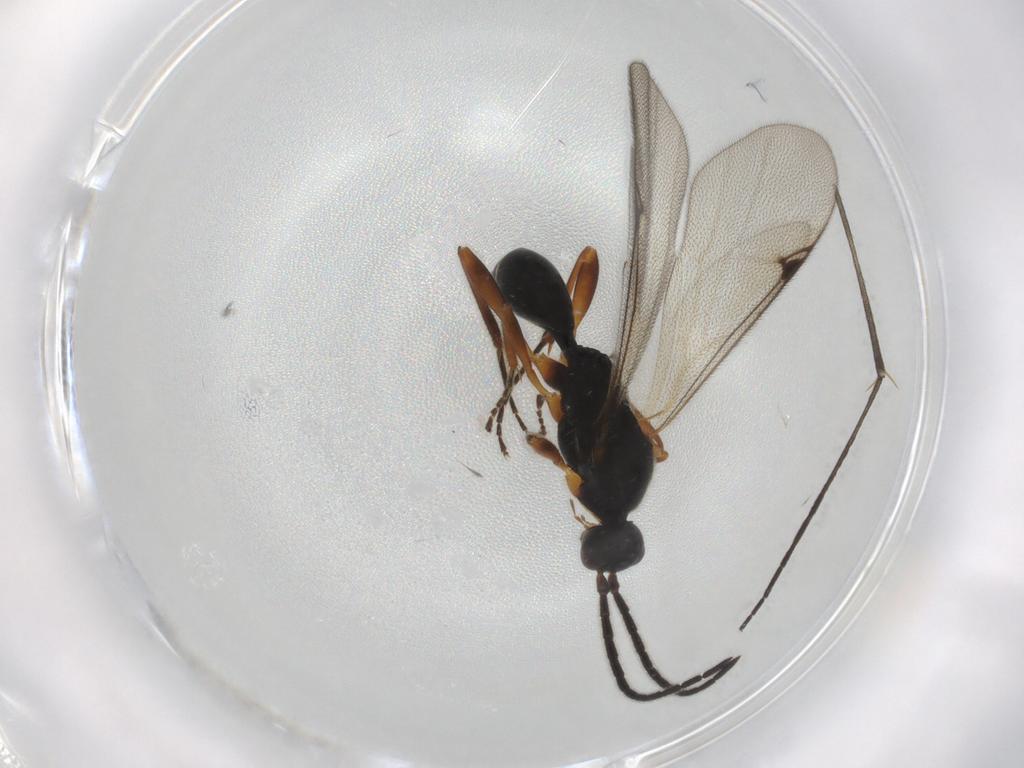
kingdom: Animalia
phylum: Arthropoda
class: Insecta
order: Hymenoptera
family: Proctotrupidae
